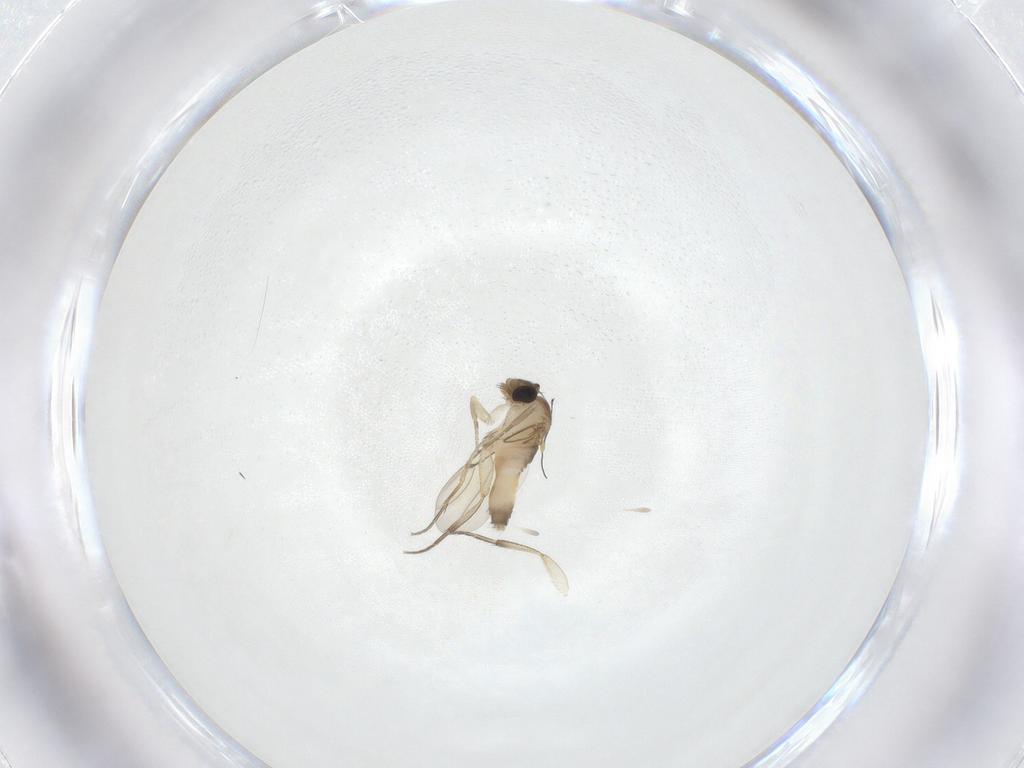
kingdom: Animalia
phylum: Arthropoda
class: Insecta
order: Diptera
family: Phoridae
